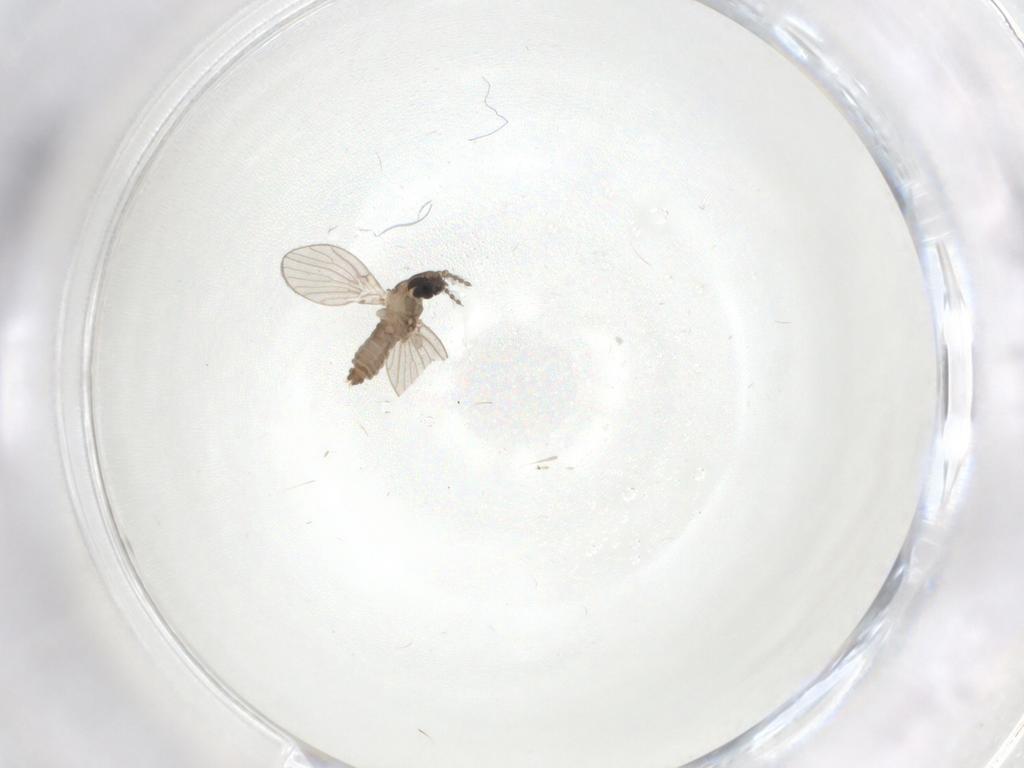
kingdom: Animalia
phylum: Arthropoda
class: Insecta
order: Diptera
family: Psychodidae
